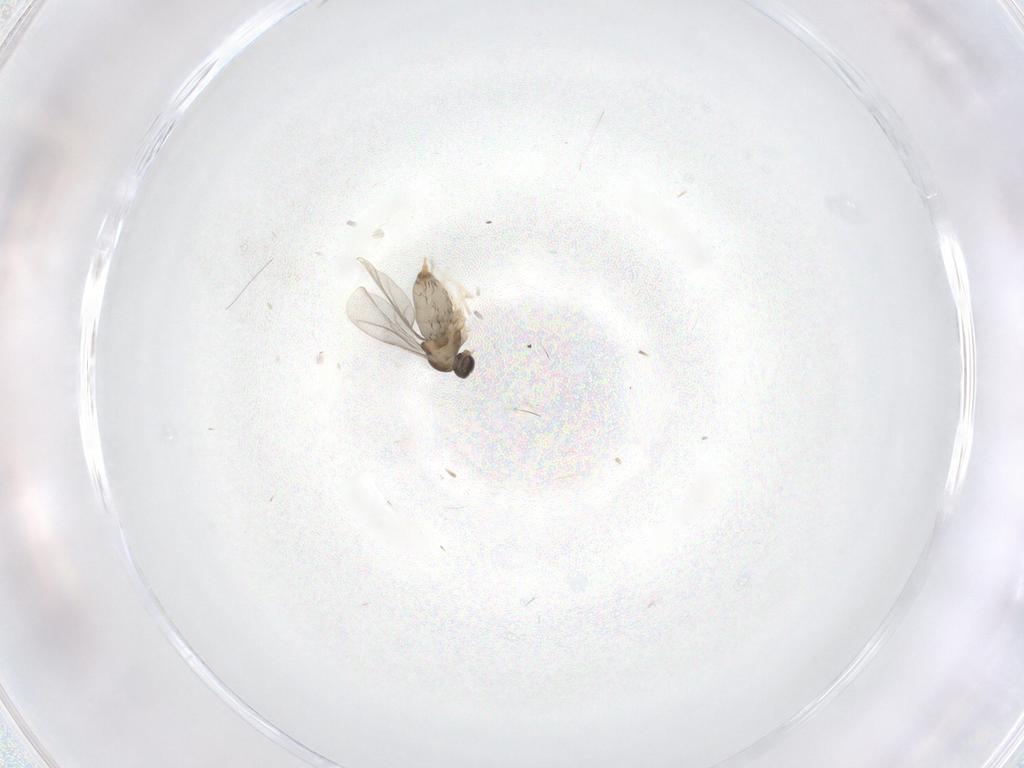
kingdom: Animalia
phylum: Arthropoda
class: Insecta
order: Diptera
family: Cecidomyiidae
